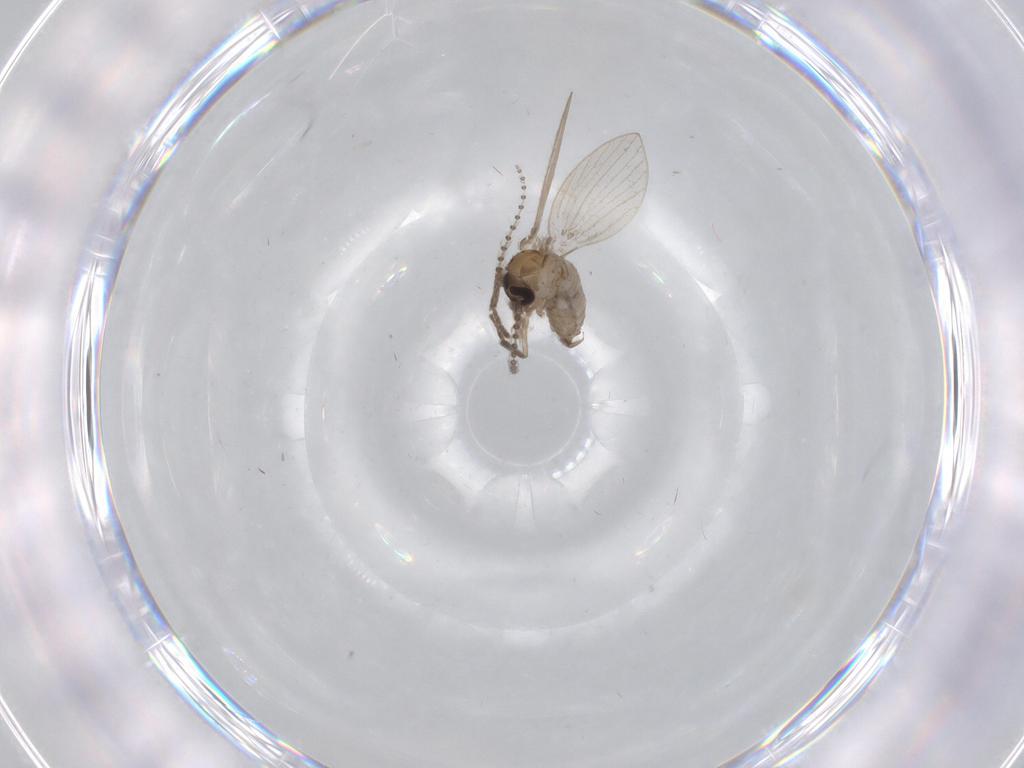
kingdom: Animalia
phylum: Arthropoda
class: Insecta
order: Diptera
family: Psychodidae
